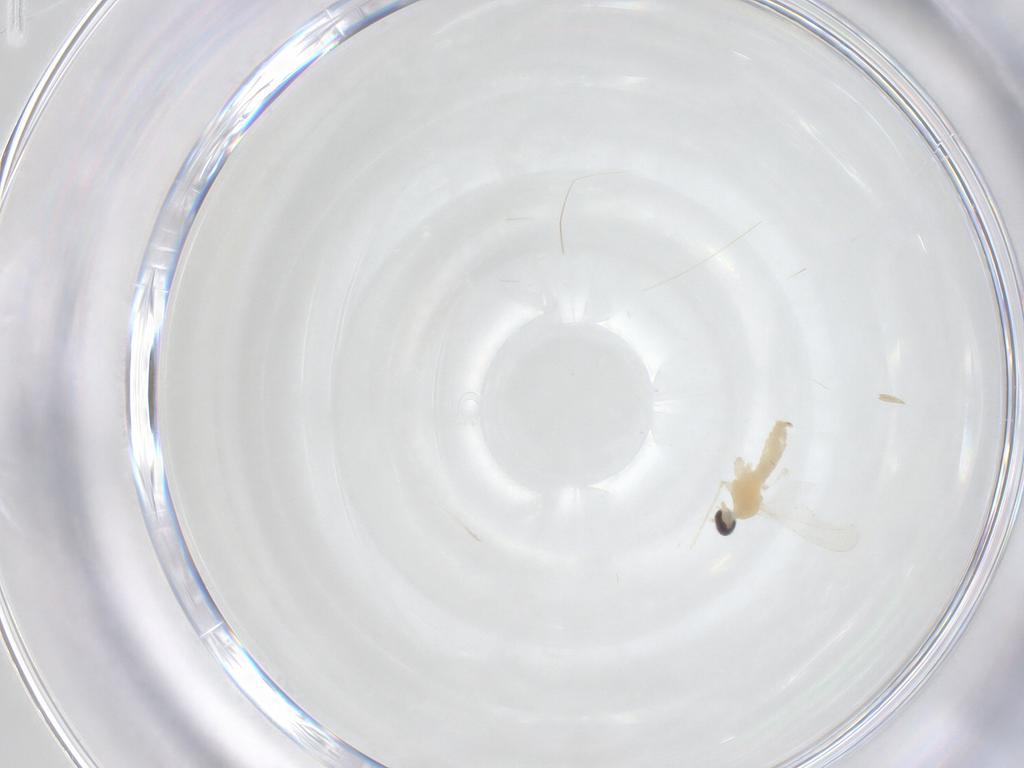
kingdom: Animalia
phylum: Arthropoda
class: Insecta
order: Diptera
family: Cecidomyiidae
